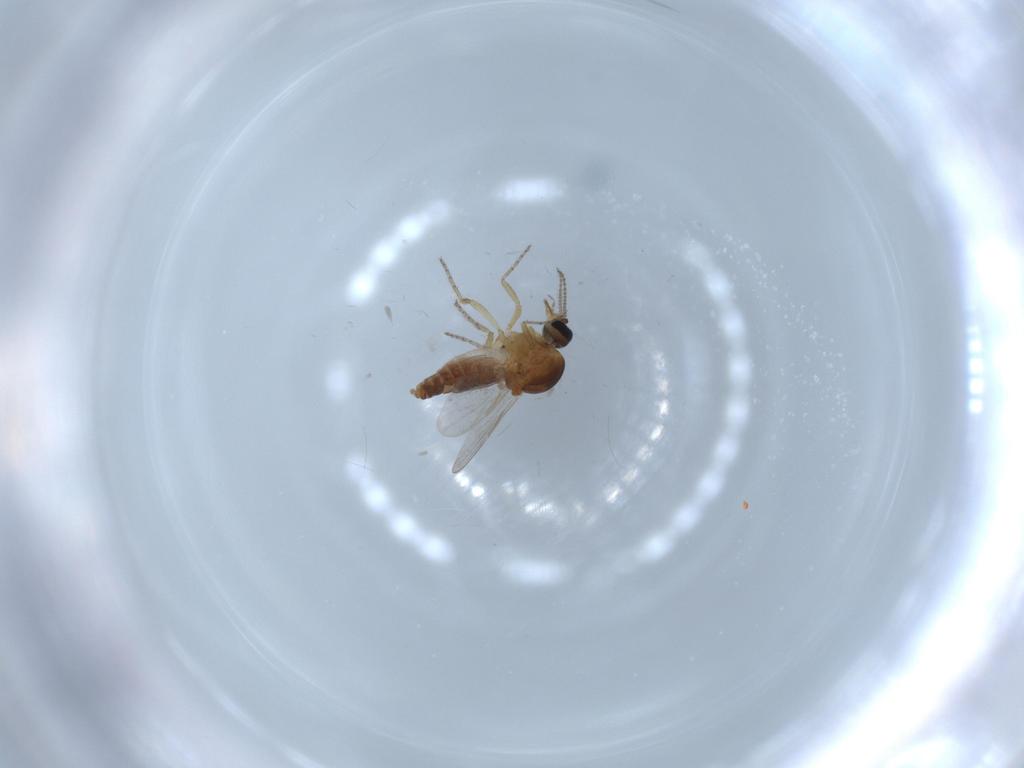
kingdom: Animalia
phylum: Arthropoda
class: Insecta
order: Diptera
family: Ceratopogonidae
